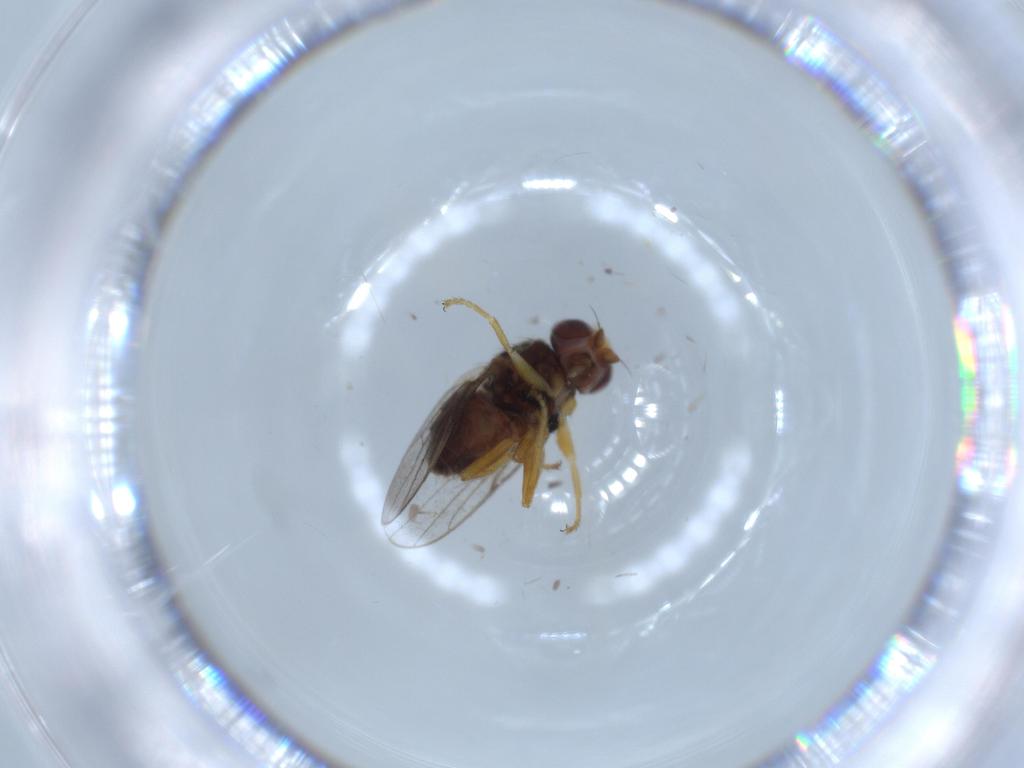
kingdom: Animalia
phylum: Arthropoda
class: Insecta
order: Diptera
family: Chloropidae
